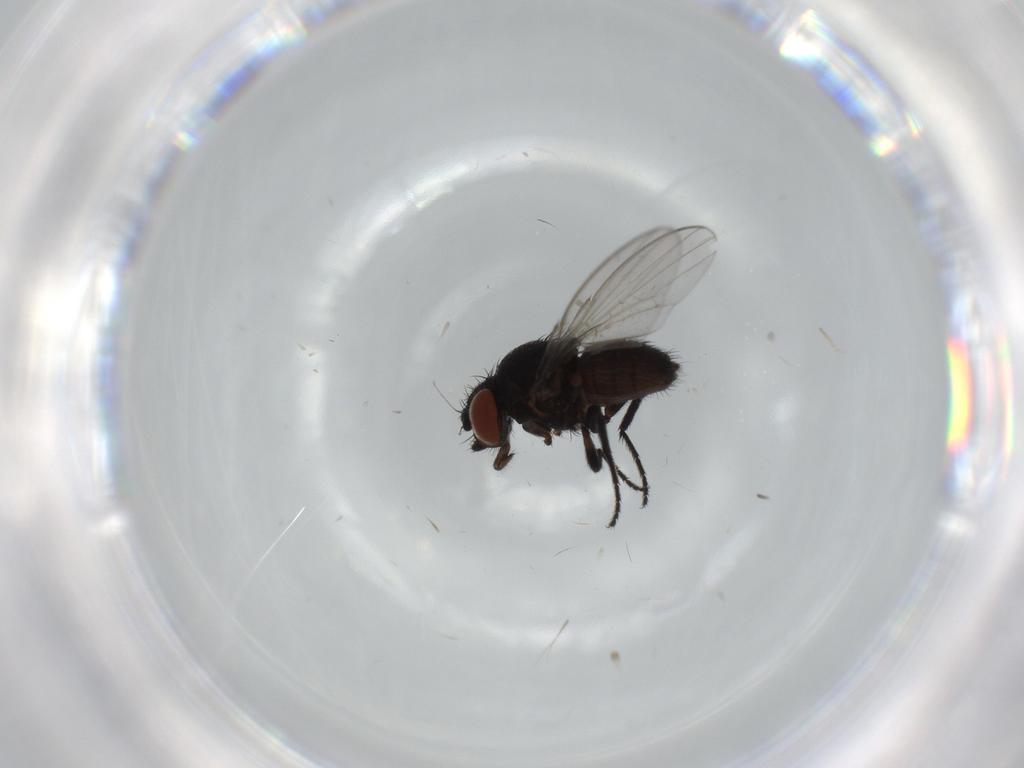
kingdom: Animalia
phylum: Arthropoda
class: Insecta
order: Diptera
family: Milichiidae
